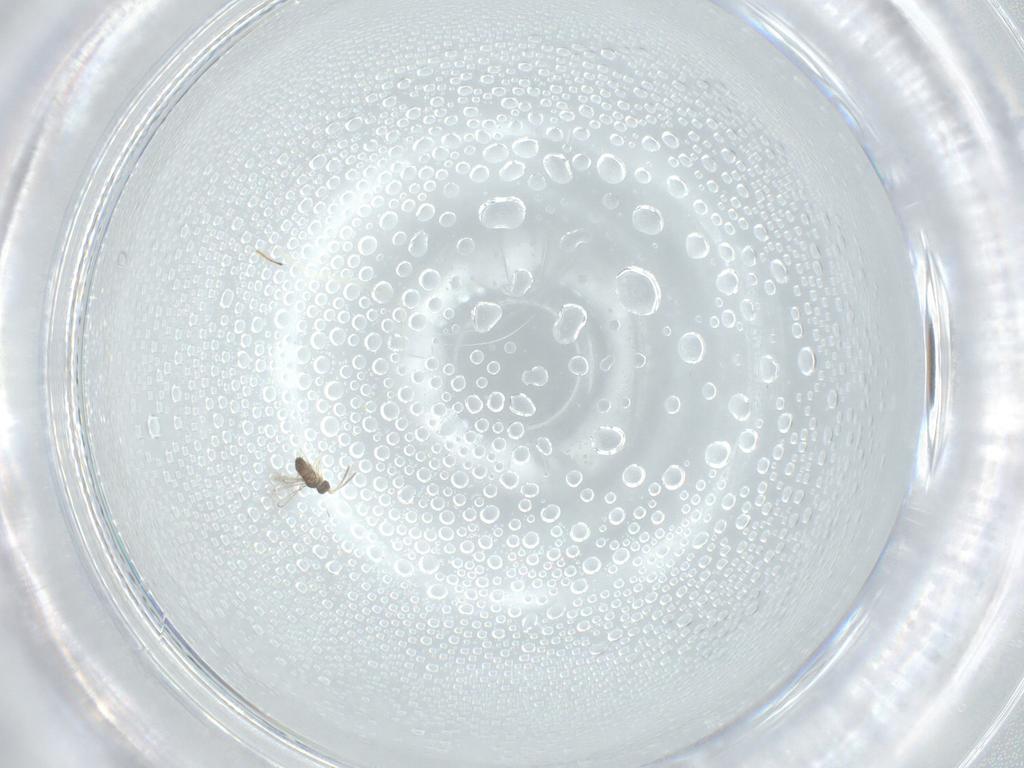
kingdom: Animalia
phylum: Arthropoda
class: Insecta
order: Hymenoptera
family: Scelionidae
